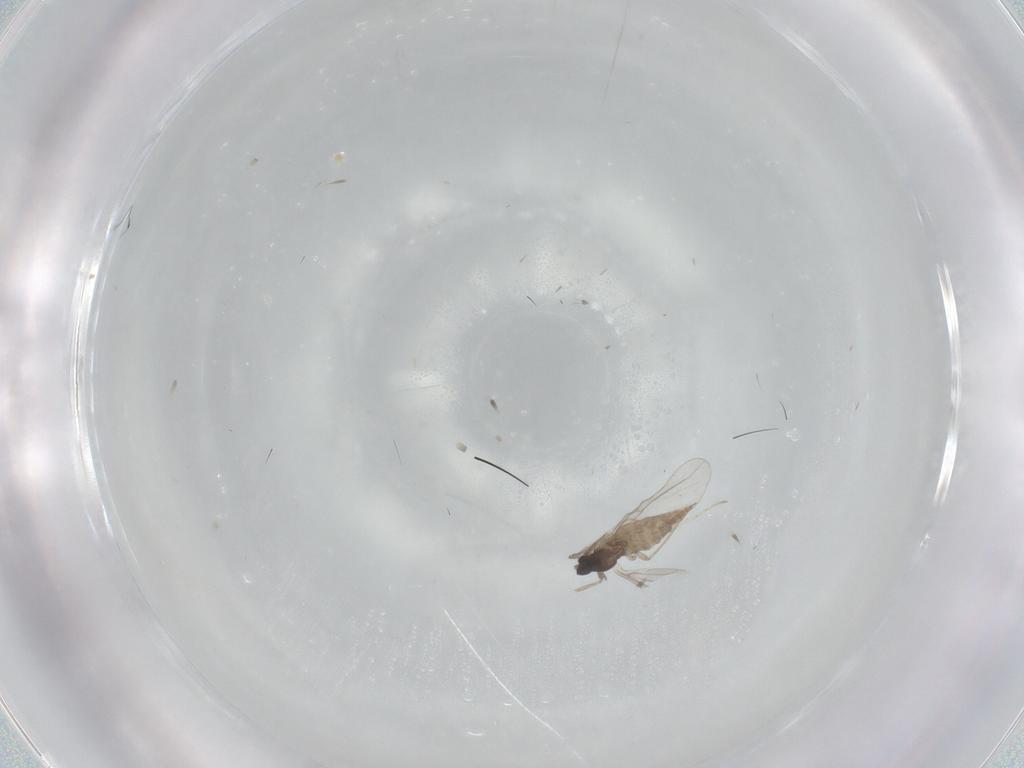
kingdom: Animalia
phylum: Arthropoda
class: Insecta
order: Diptera
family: Cecidomyiidae
